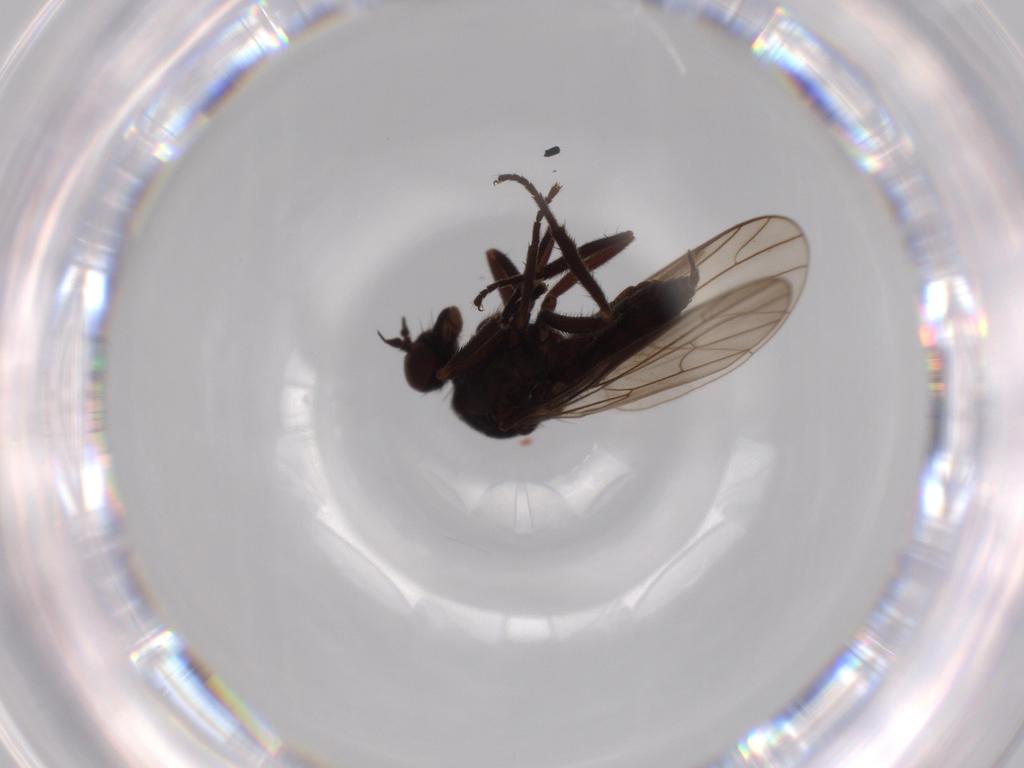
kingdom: Animalia
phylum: Arthropoda
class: Insecta
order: Diptera
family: Empididae
